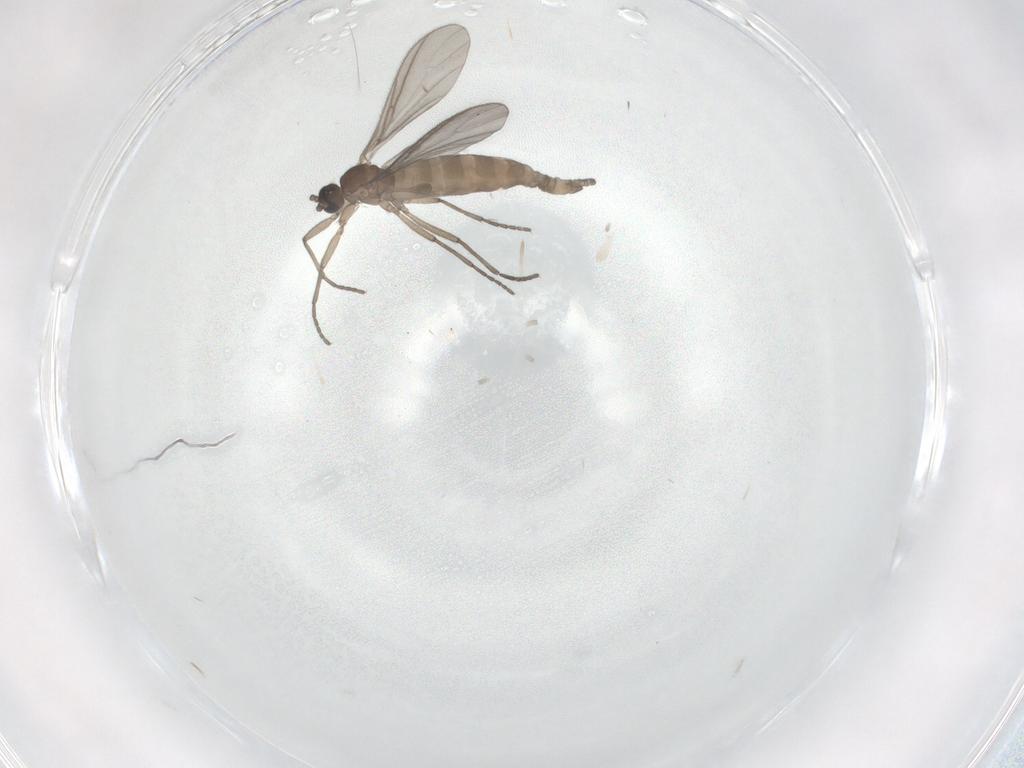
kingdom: Animalia
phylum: Arthropoda
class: Insecta
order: Diptera
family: Sciaridae
